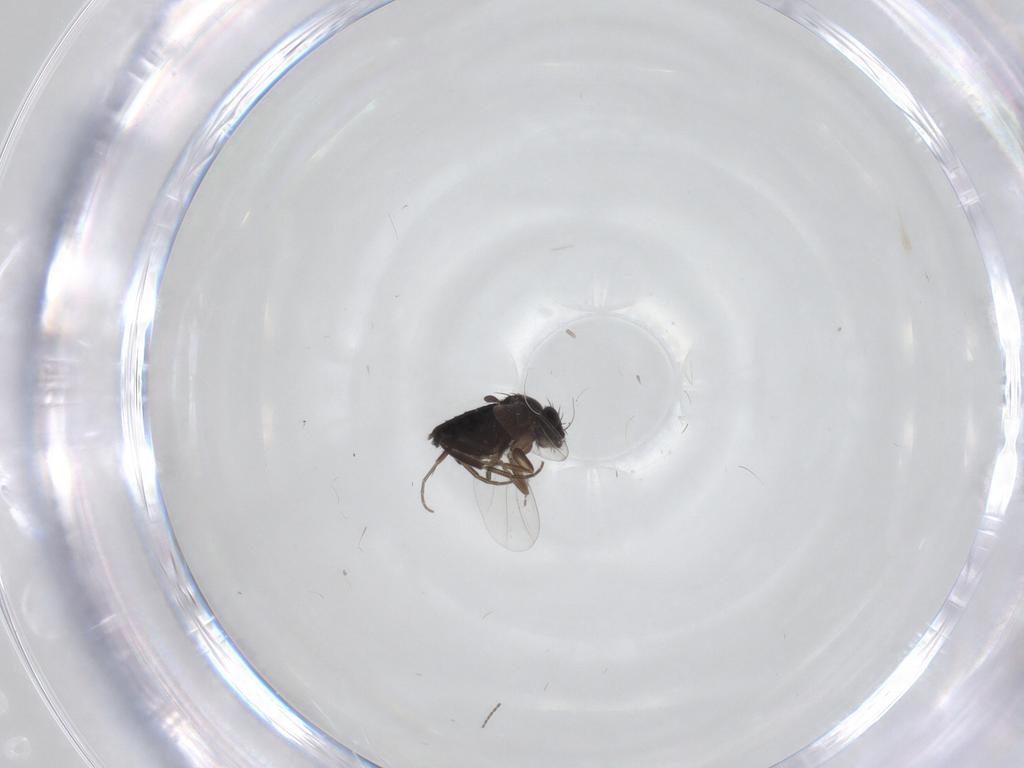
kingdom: Animalia
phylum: Arthropoda
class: Insecta
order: Diptera
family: Phoridae
